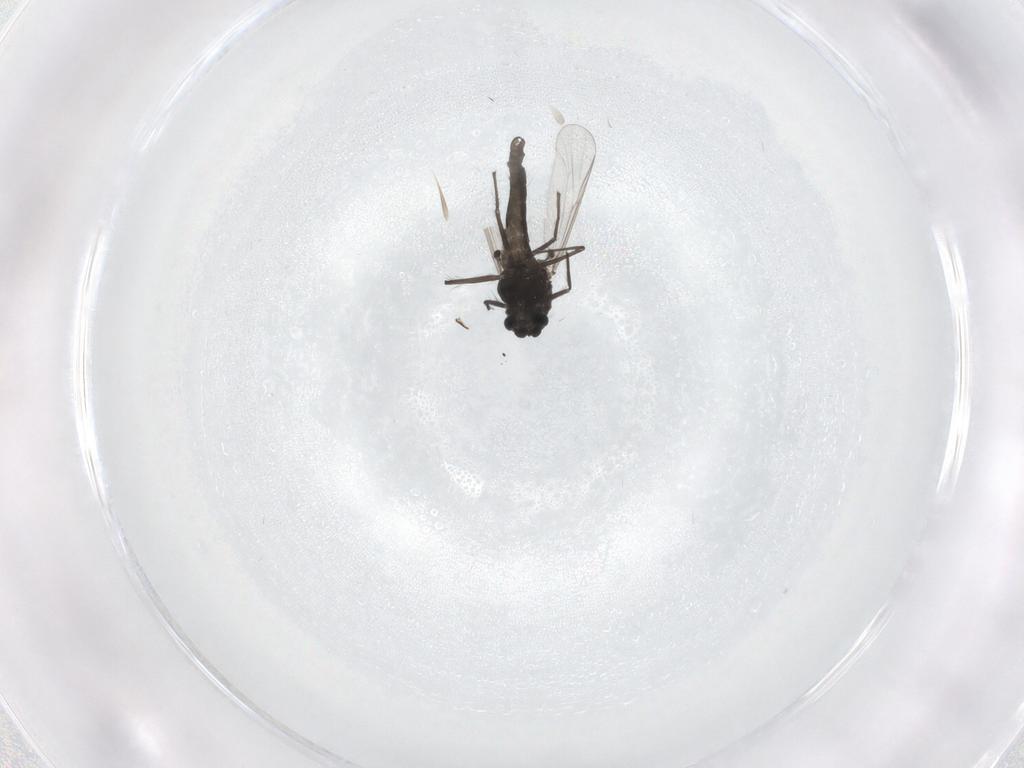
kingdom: Animalia
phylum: Arthropoda
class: Insecta
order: Diptera
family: Chironomidae
